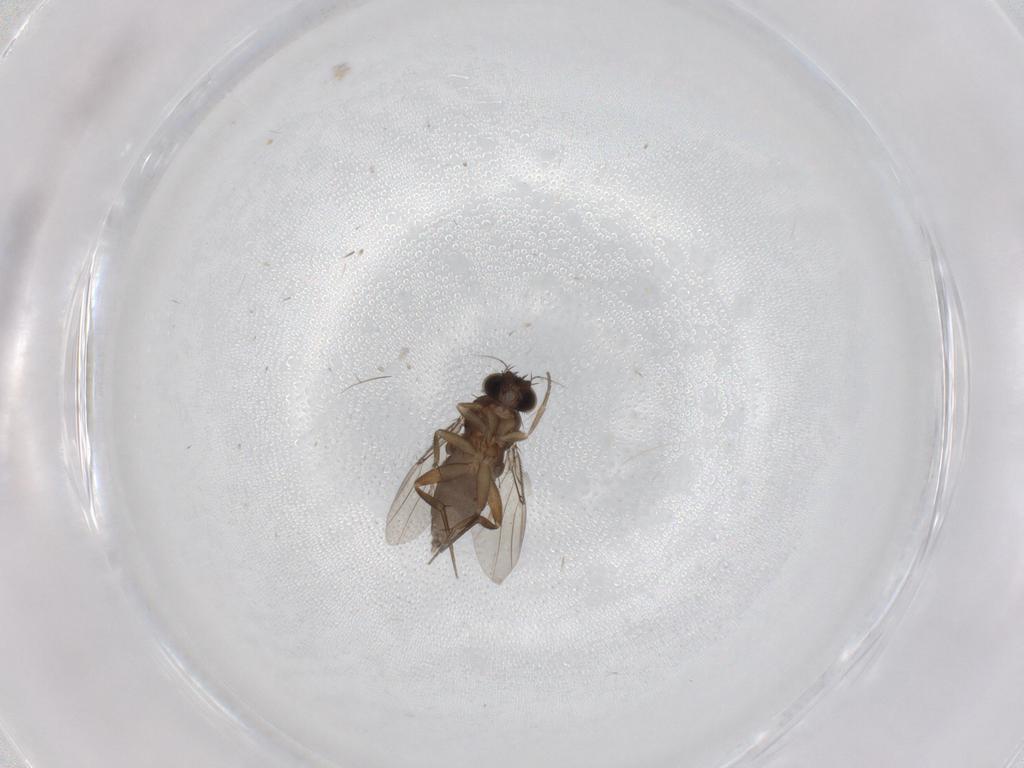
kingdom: Animalia
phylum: Arthropoda
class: Insecta
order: Diptera
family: Phoridae
